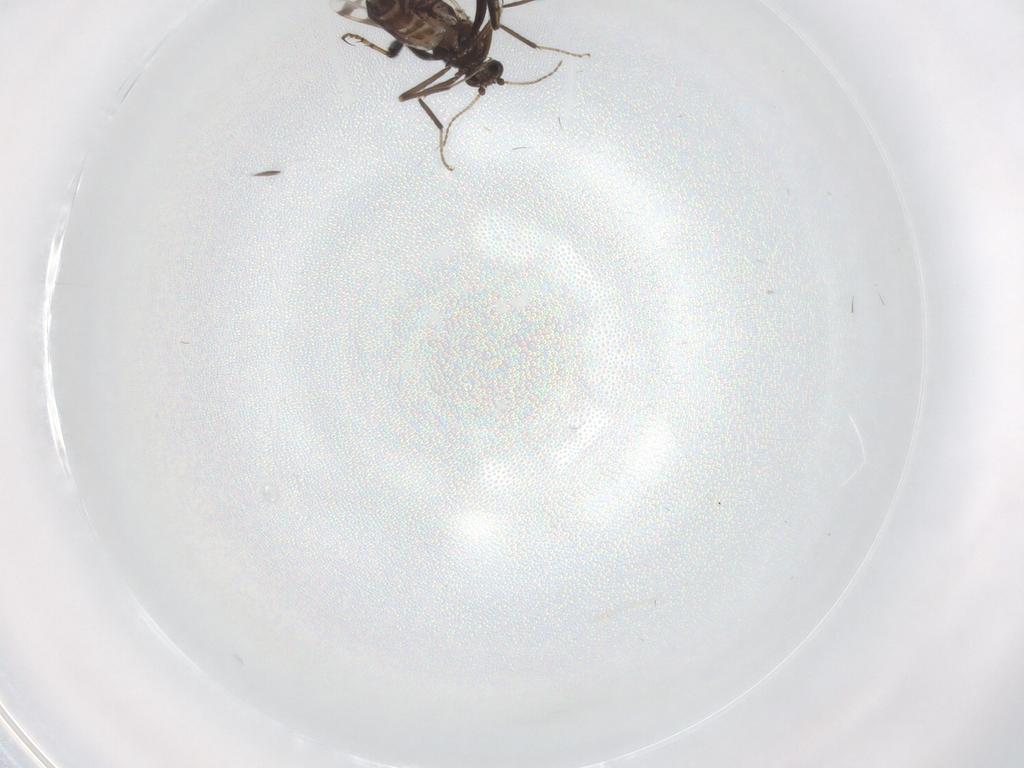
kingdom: Animalia
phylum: Arthropoda
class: Insecta
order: Diptera
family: Ceratopogonidae
